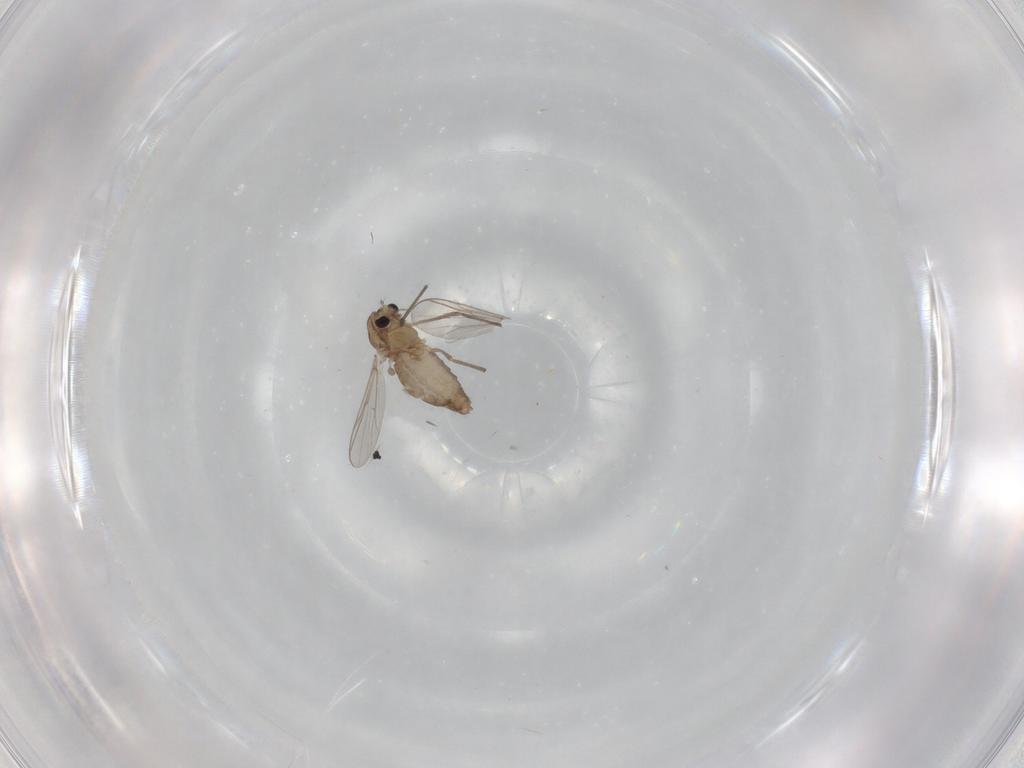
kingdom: Animalia
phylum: Arthropoda
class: Insecta
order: Diptera
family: Chironomidae
